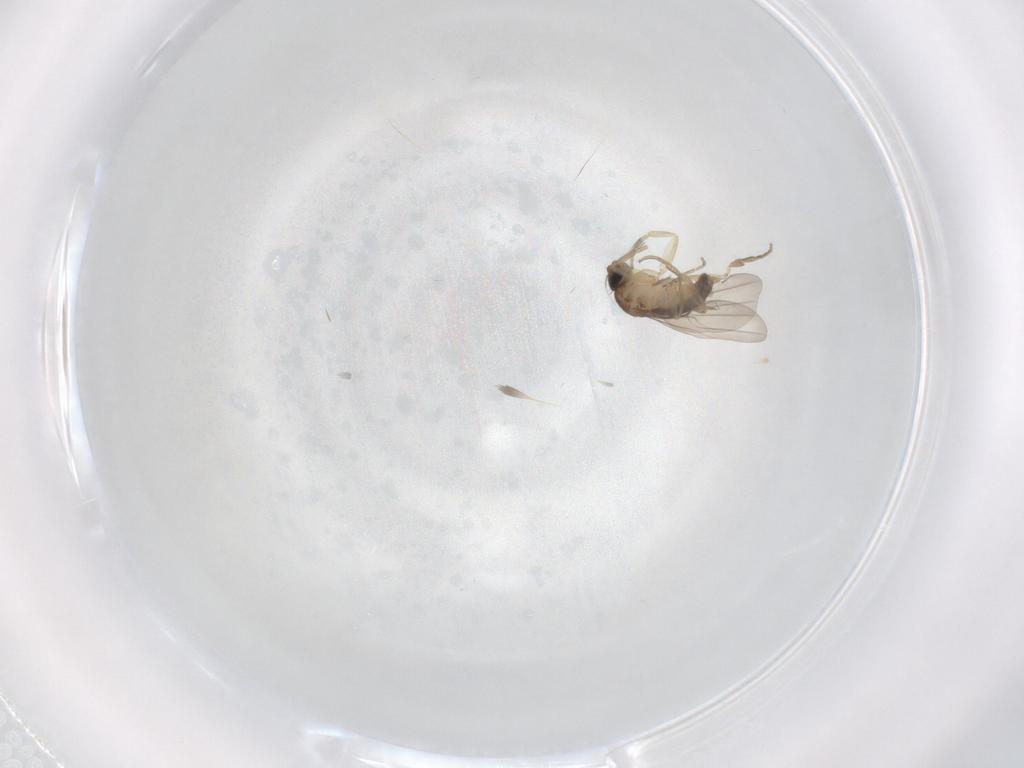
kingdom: Animalia
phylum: Arthropoda
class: Insecta
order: Diptera
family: Phoridae
